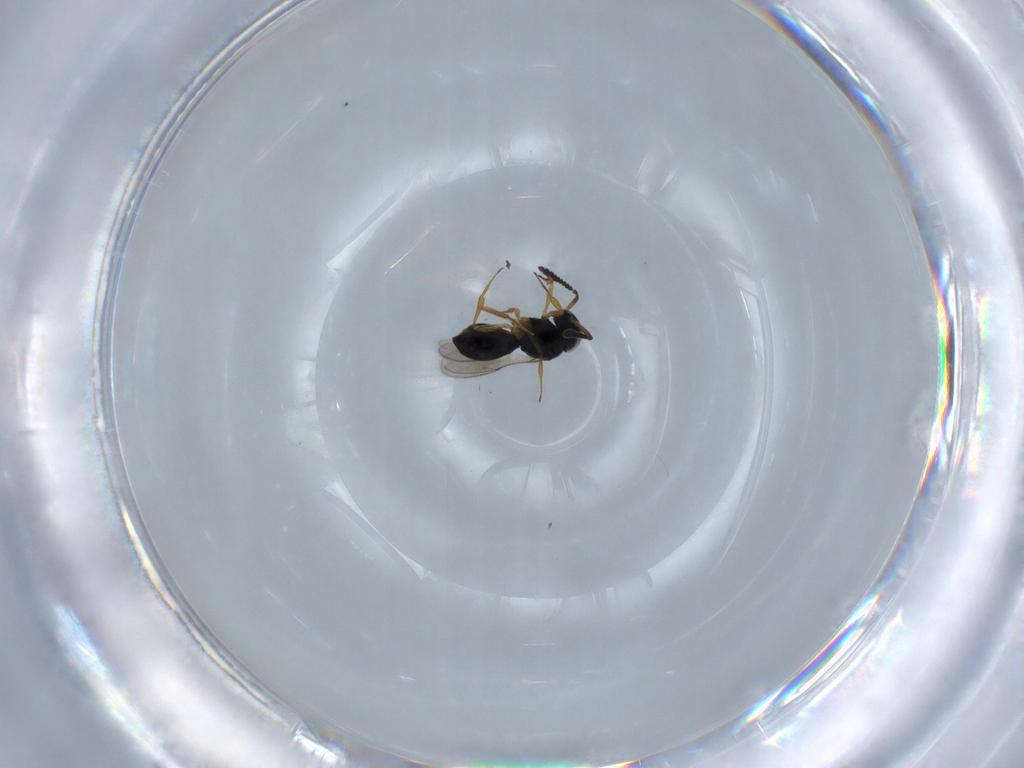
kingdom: Animalia
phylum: Arthropoda
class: Insecta
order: Hymenoptera
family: Scelionidae
